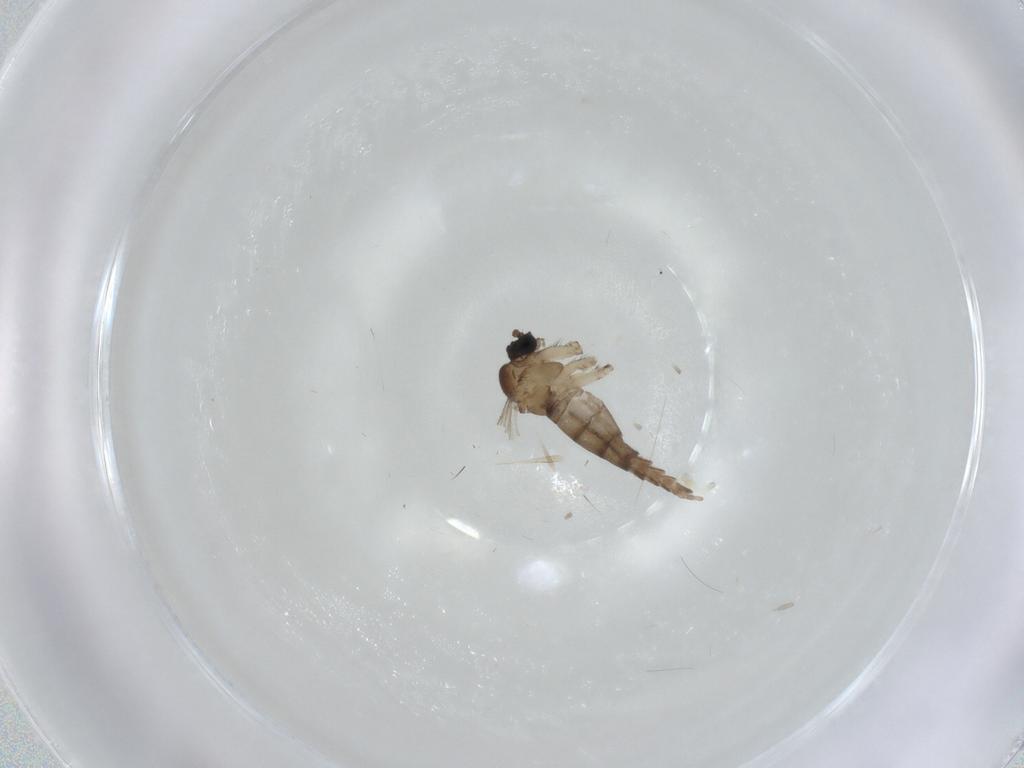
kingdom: Animalia
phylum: Arthropoda
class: Insecta
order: Diptera
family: Sciaridae
